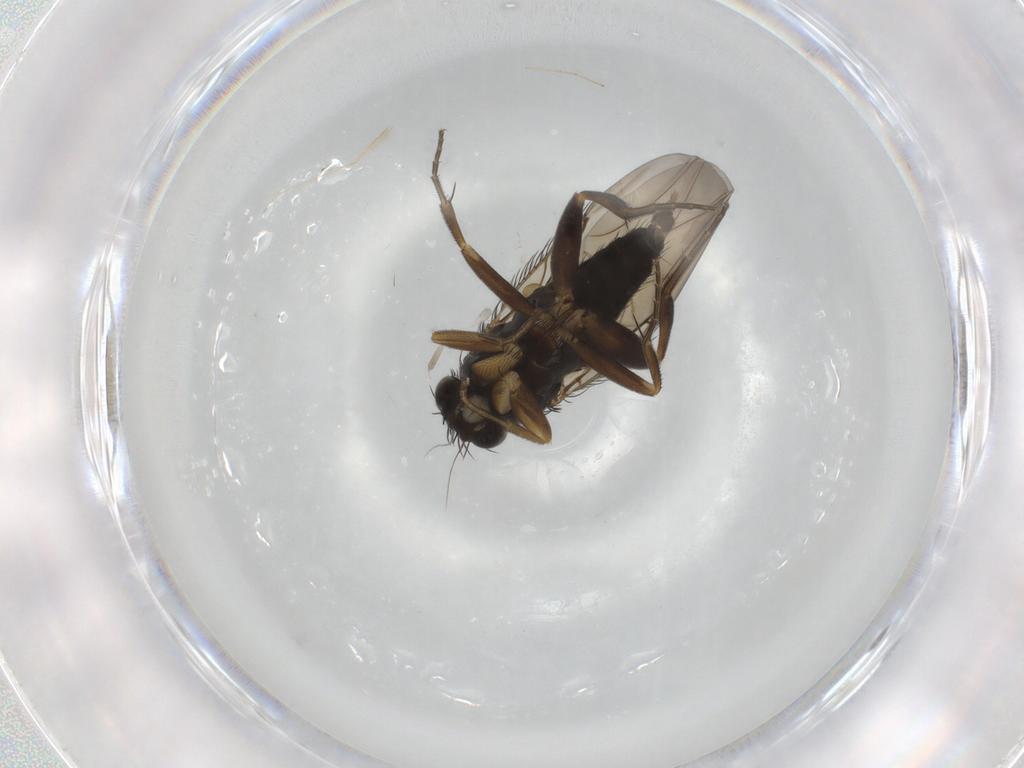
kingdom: Animalia
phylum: Arthropoda
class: Insecta
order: Diptera
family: Phoridae
